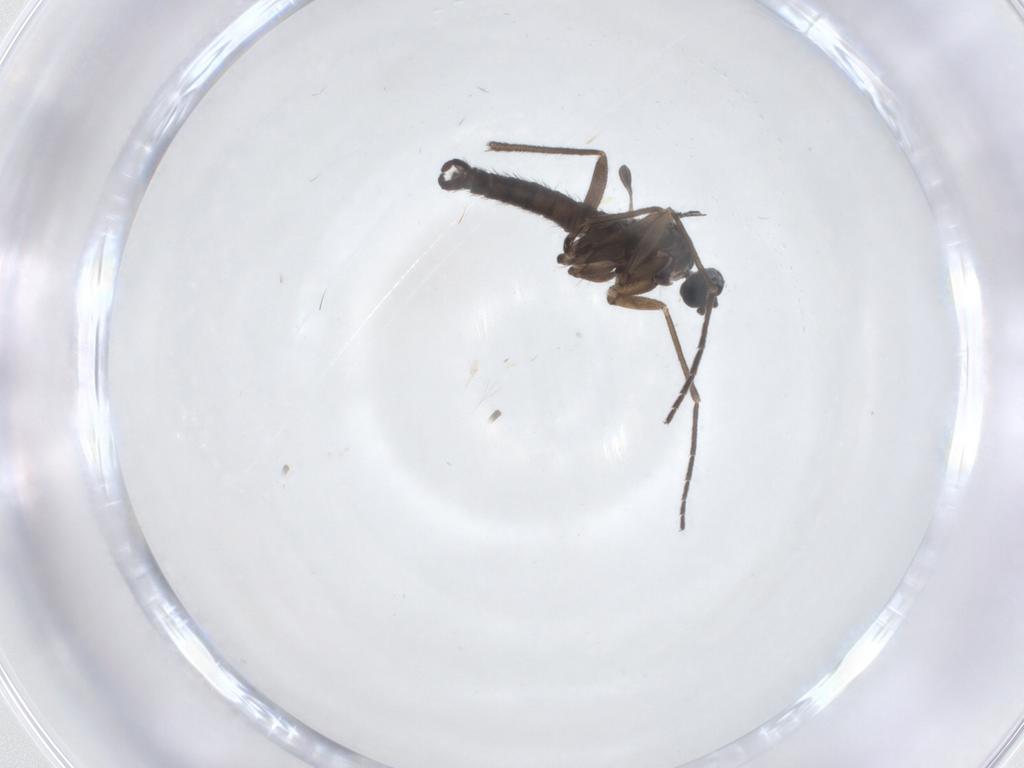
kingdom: Animalia
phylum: Arthropoda
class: Insecta
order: Diptera
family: Sciaridae
